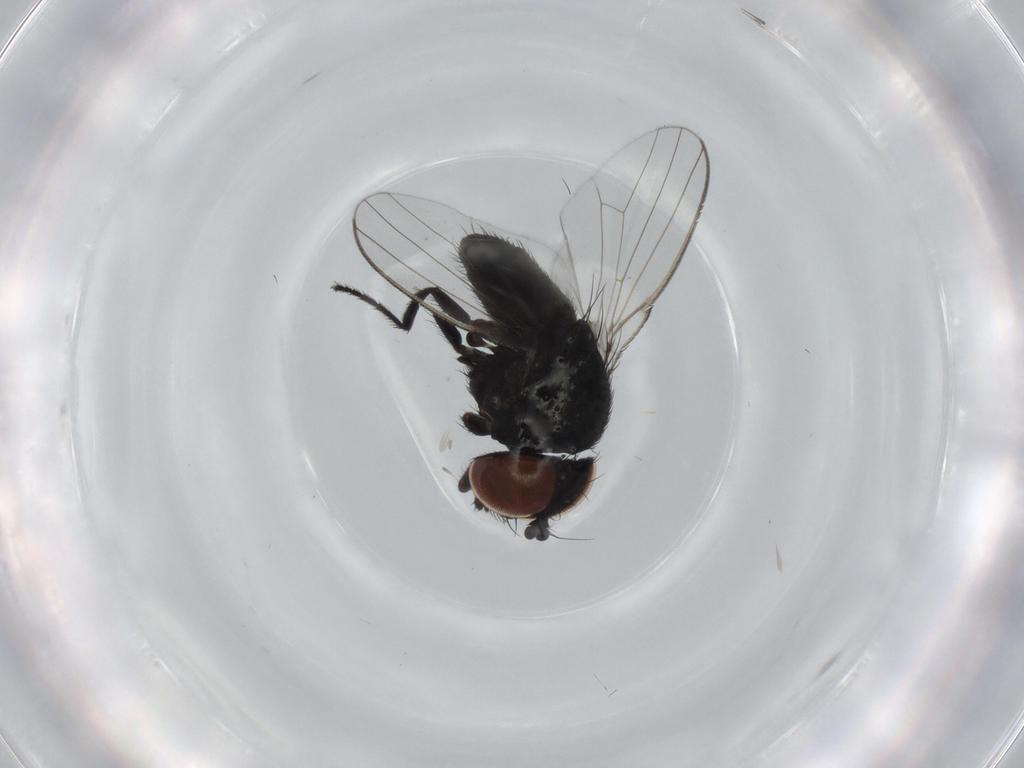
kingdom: Animalia
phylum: Arthropoda
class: Insecta
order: Diptera
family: Milichiidae
